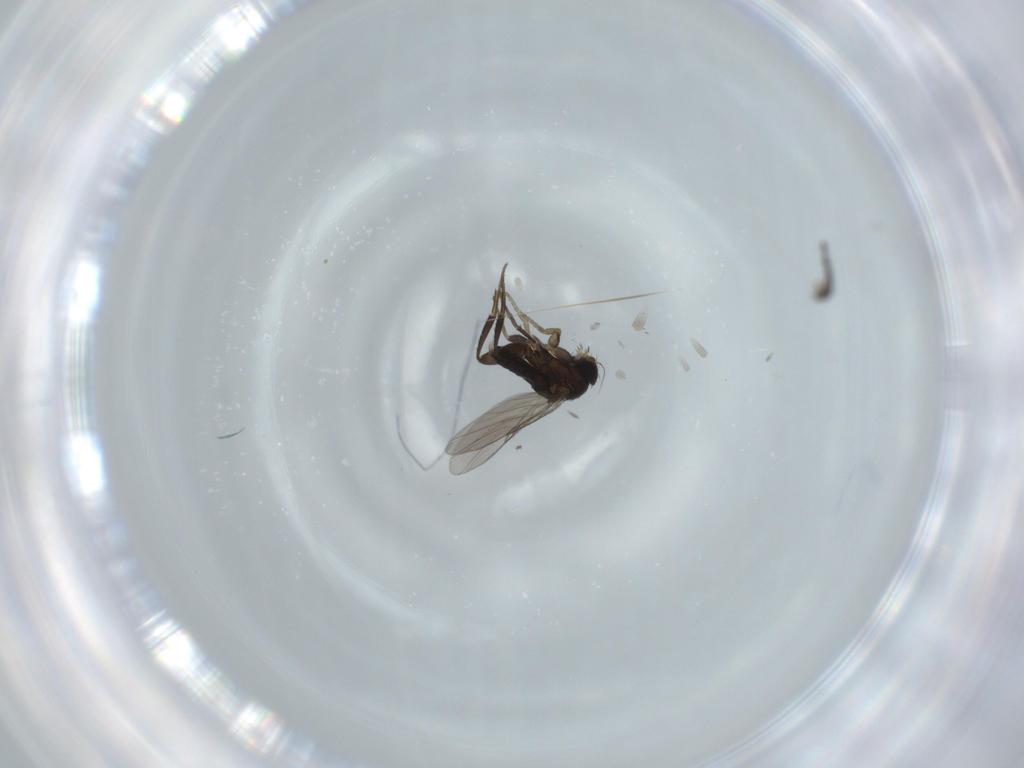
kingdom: Animalia
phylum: Arthropoda
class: Insecta
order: Diptera
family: Phoridae
